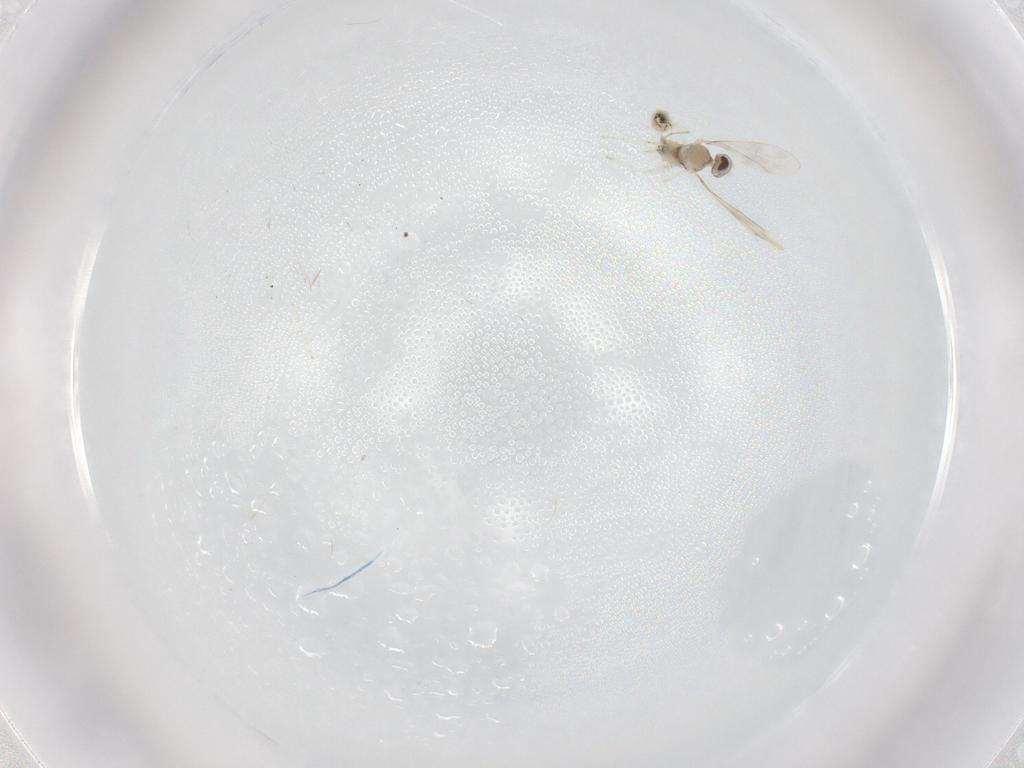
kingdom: Animalia
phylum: Arthropoda
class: Insecta
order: Diptera
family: Cecidomyiidae
